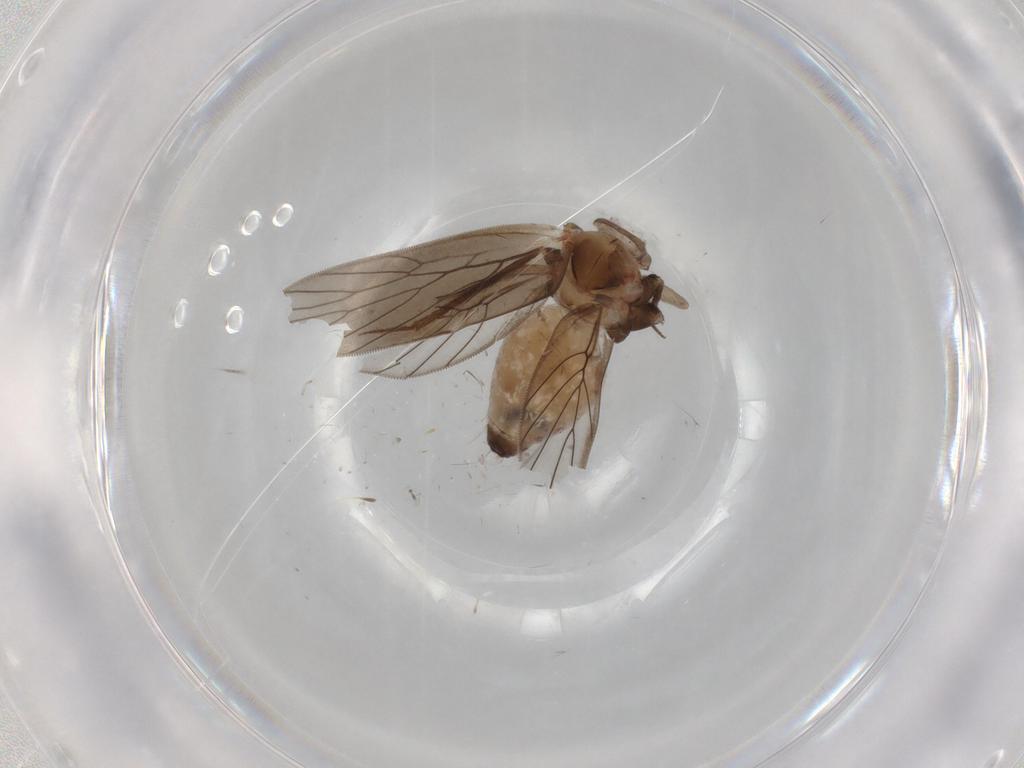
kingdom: Animalia
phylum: Arthropoda
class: Insecta
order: Psocodea
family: Lepidopsocidae
